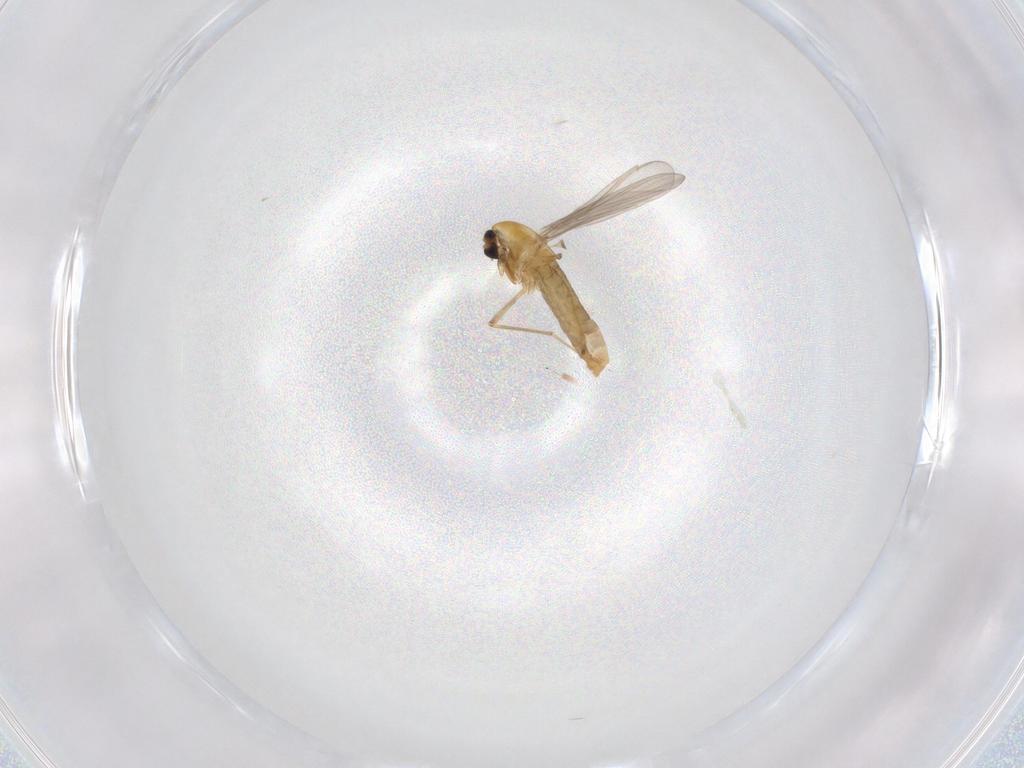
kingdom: Animalia
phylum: Arthropoda
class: Insecta
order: Diptera
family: Chironomidae
